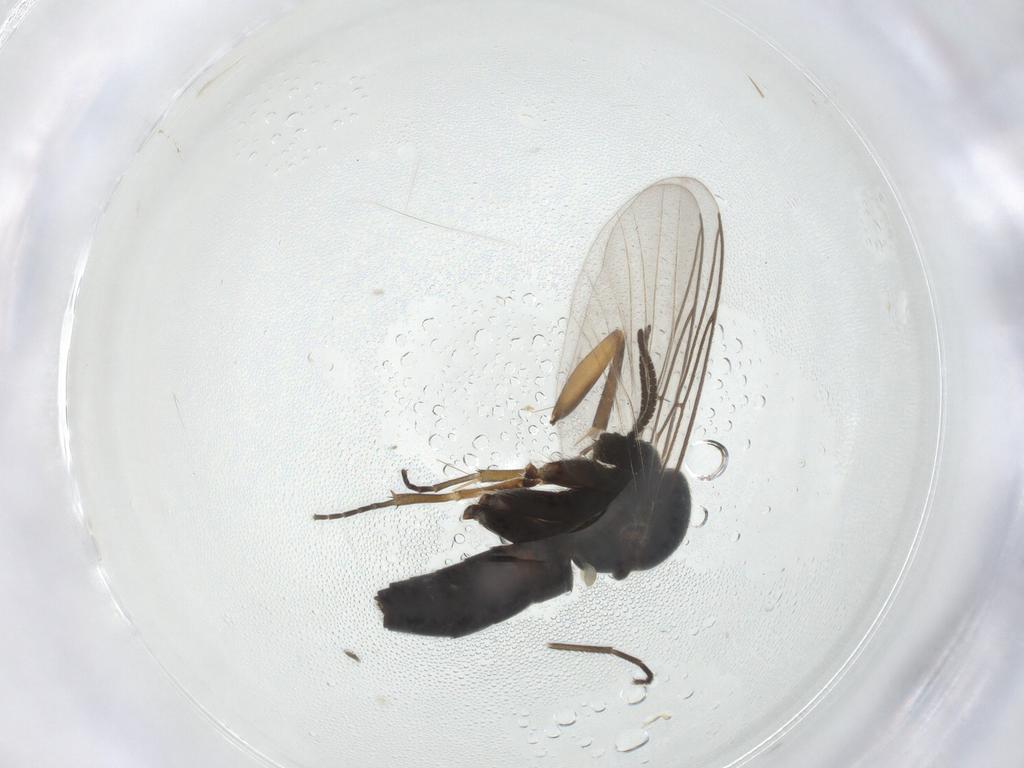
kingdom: Animalia
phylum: Arthropoda
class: Insecta
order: Diptera
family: Mycetophilidae
